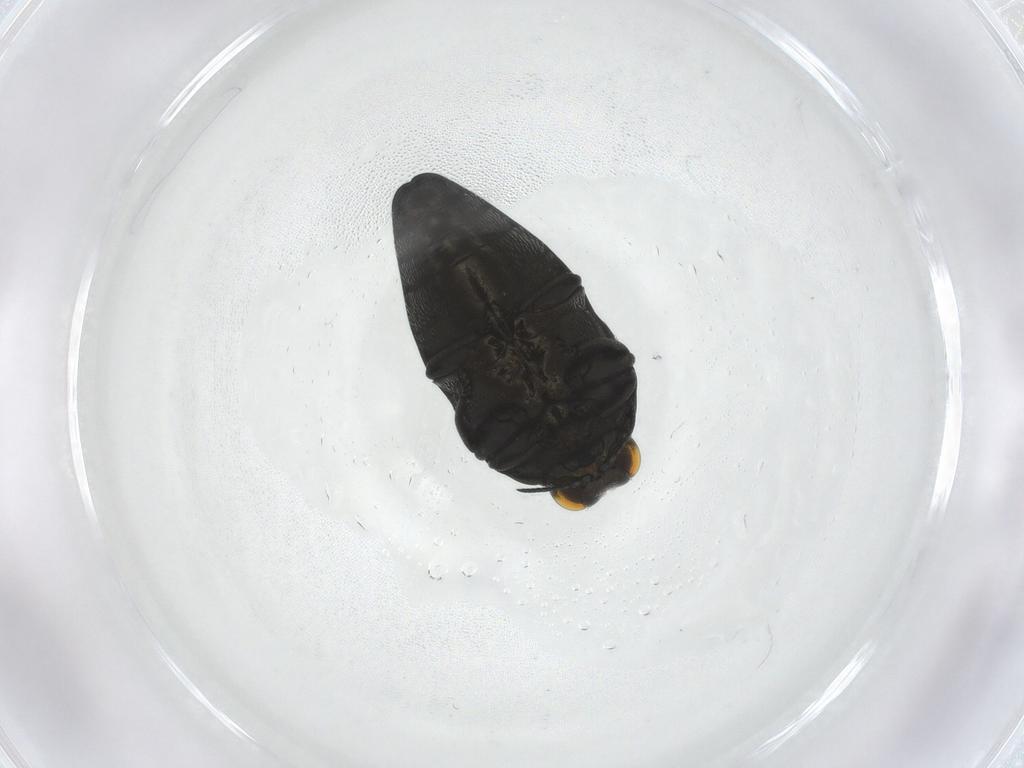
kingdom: Animalia
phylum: Arthropoda
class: Insecta
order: Coleoptera
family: Buprestidae
